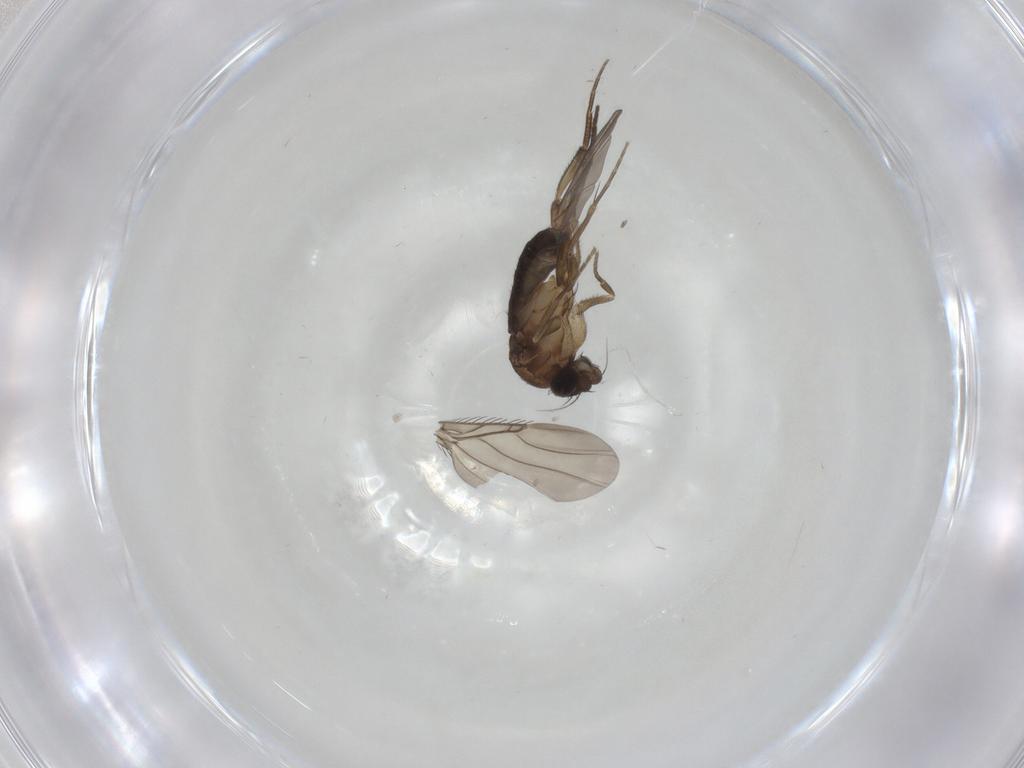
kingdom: Animalia
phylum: Arthropoda
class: Insecta
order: Diptera
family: Phoridae
